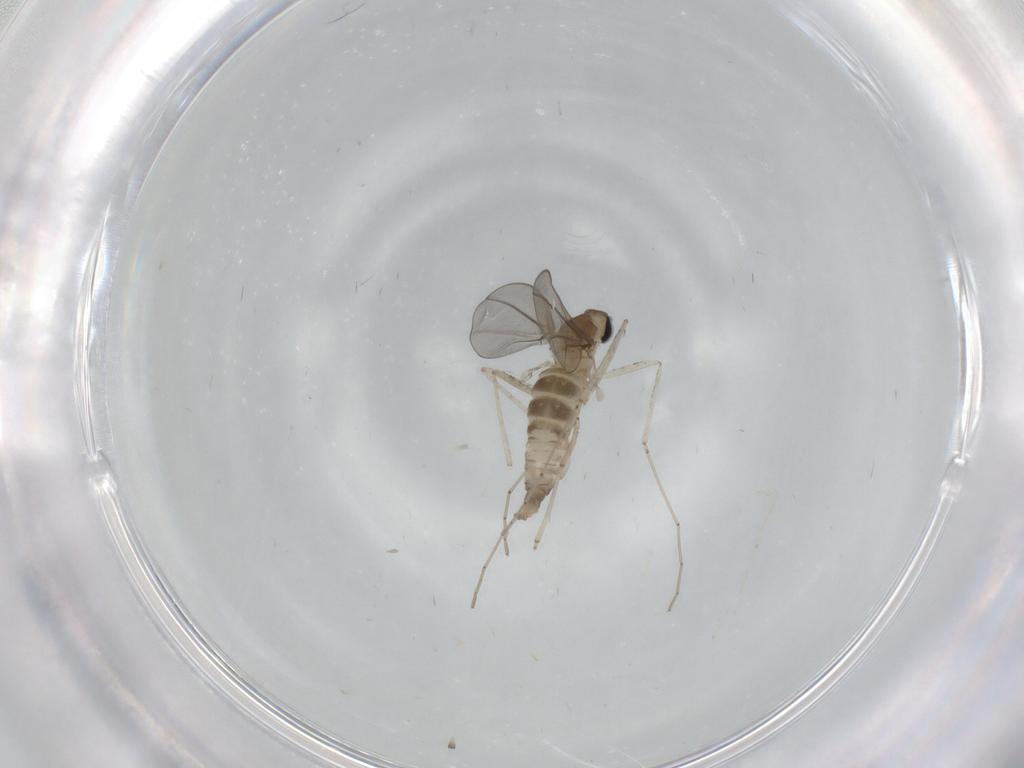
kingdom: Animalia
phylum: Arthropoda
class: Insecta
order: Diptera
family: Cecidomyiidae
